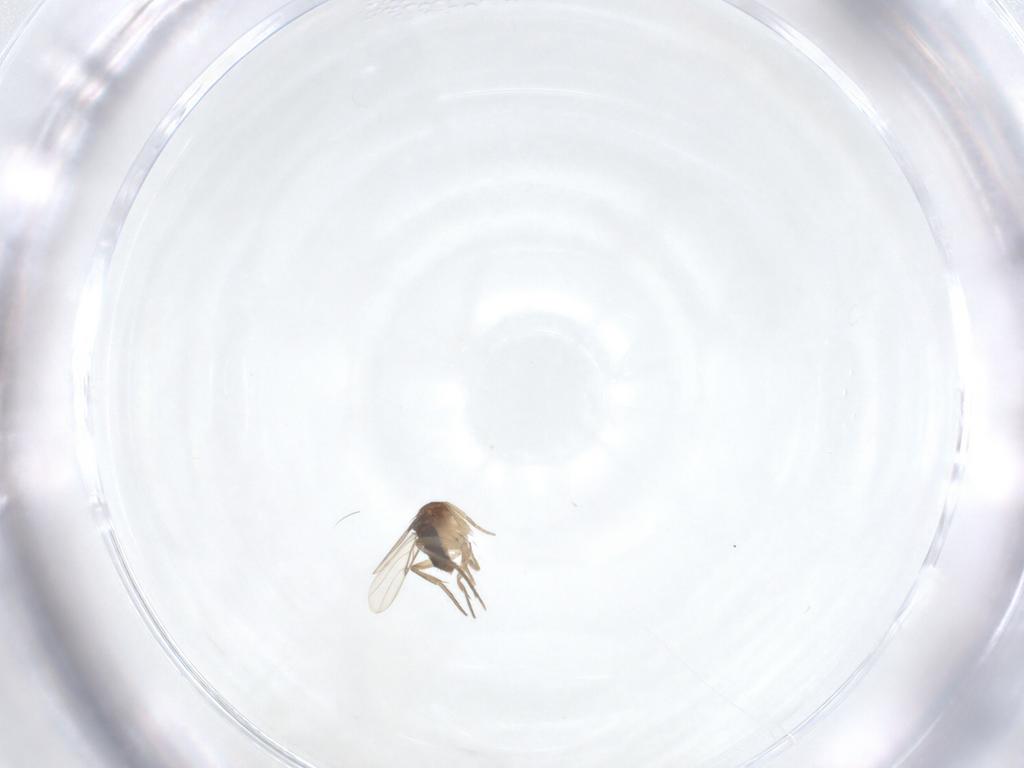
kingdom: Animalia
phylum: Arthropoda
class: Insecta
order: Diptera
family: Phoridae
